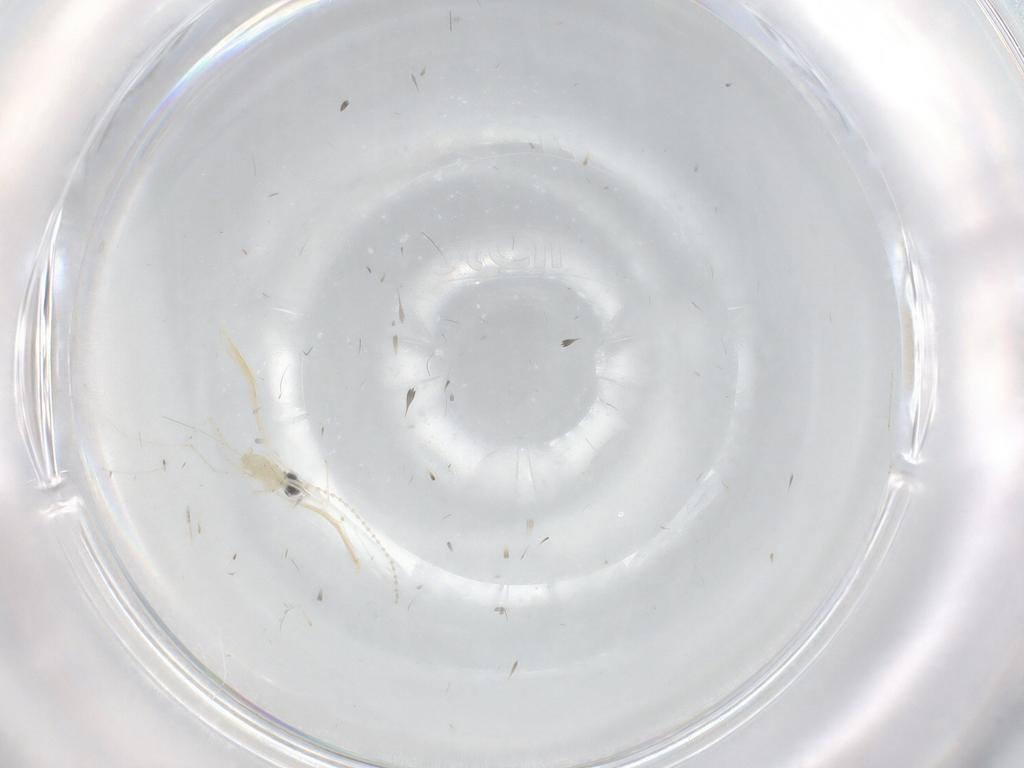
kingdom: Animalia
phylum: Arthropoda
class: Insecta
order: Diptera
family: Cecidomyiidae
